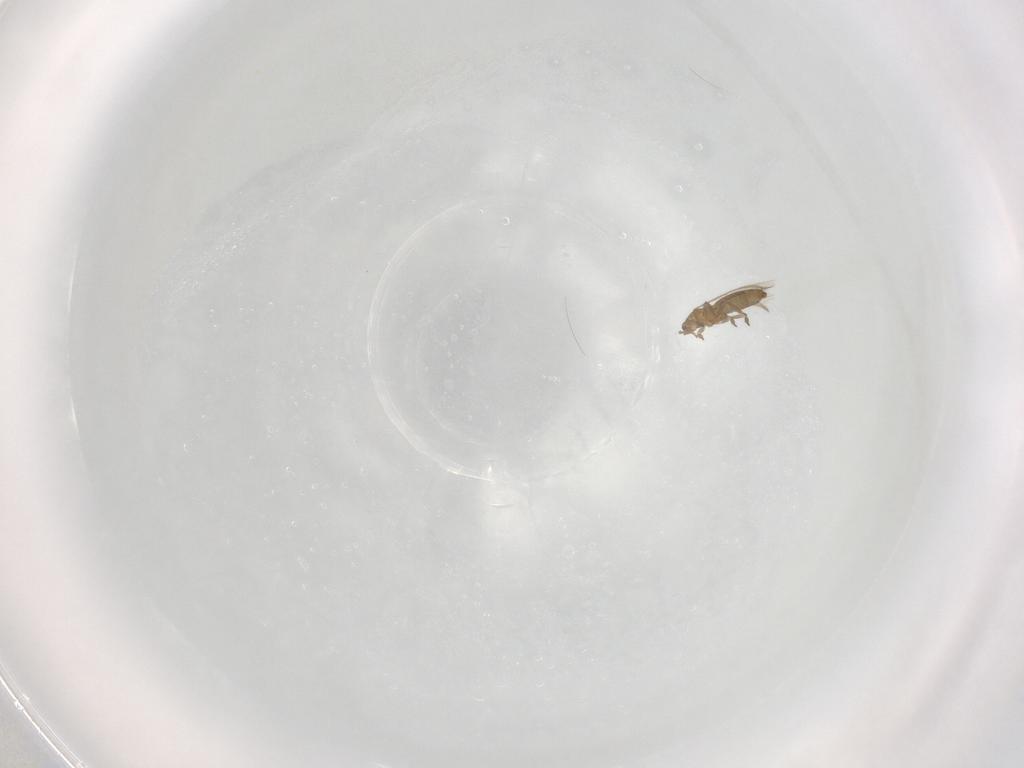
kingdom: Animalia
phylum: Arthropoda
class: Insecta
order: Thysanoptera
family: Thripidae
